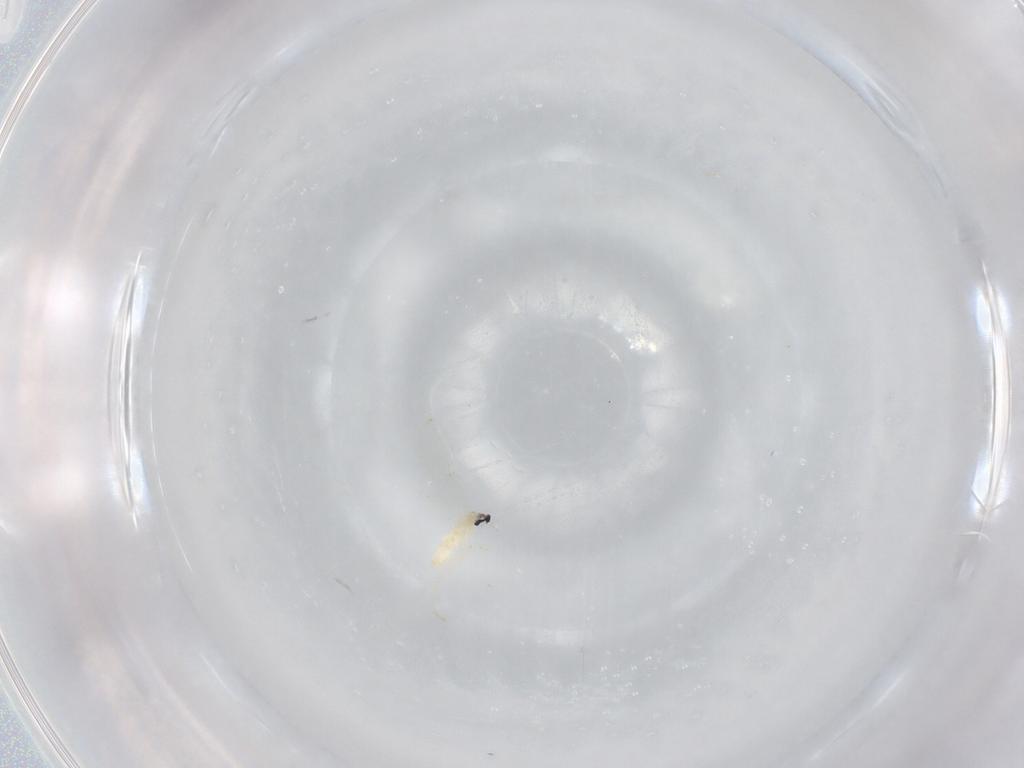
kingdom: Animalia
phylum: Arthropoda
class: Insecta
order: Diptera
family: Cecidomyiidae
